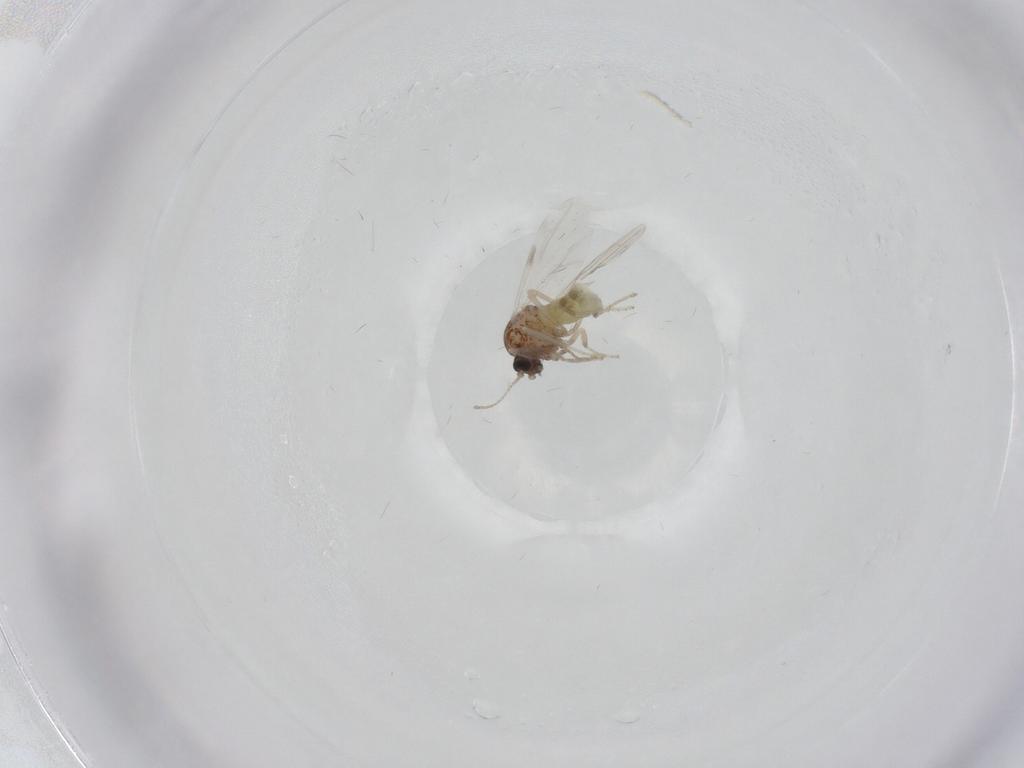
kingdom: Animalia
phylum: Arthropoda
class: Insecta
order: Diptera
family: Ceratopogonidae
